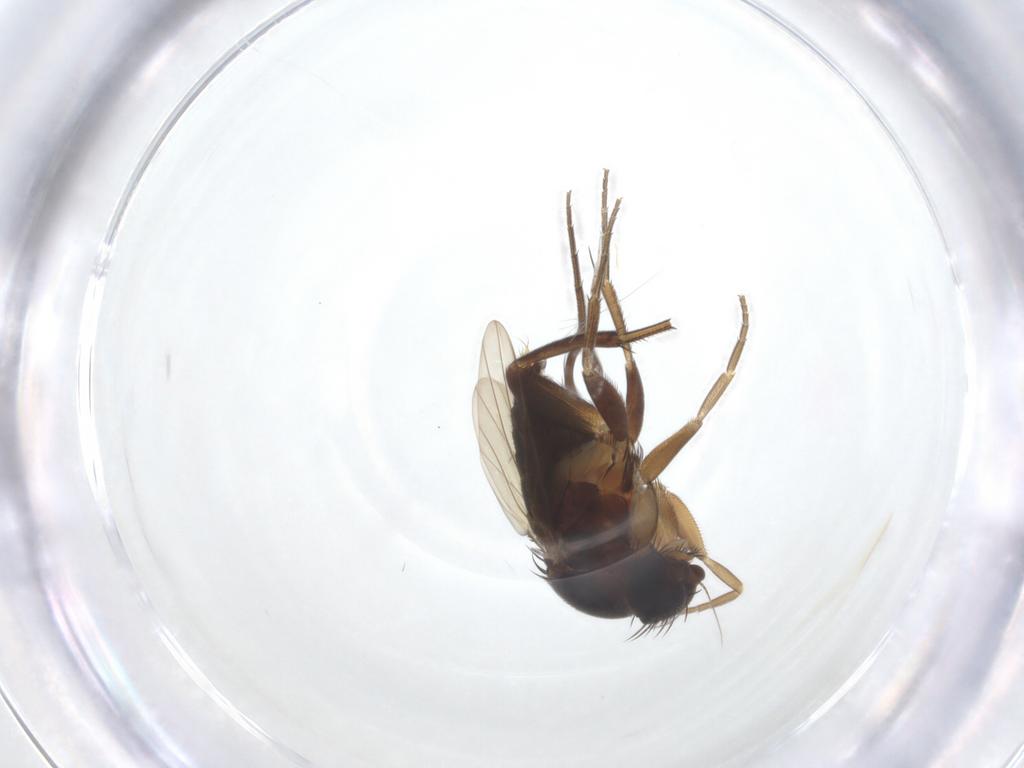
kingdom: Animalia
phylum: Arthropoda
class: Insecta
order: Diptera
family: Phoridae
